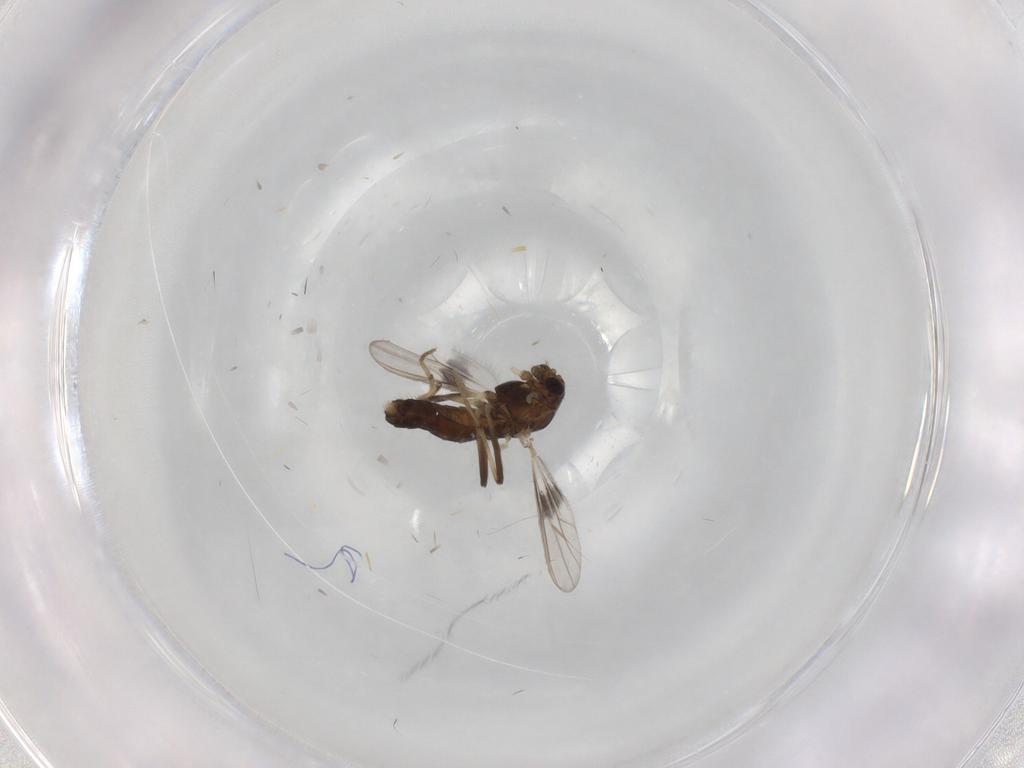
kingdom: Animalia
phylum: Arthropoda
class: Insecta
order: Diptera
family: Chironomidae
